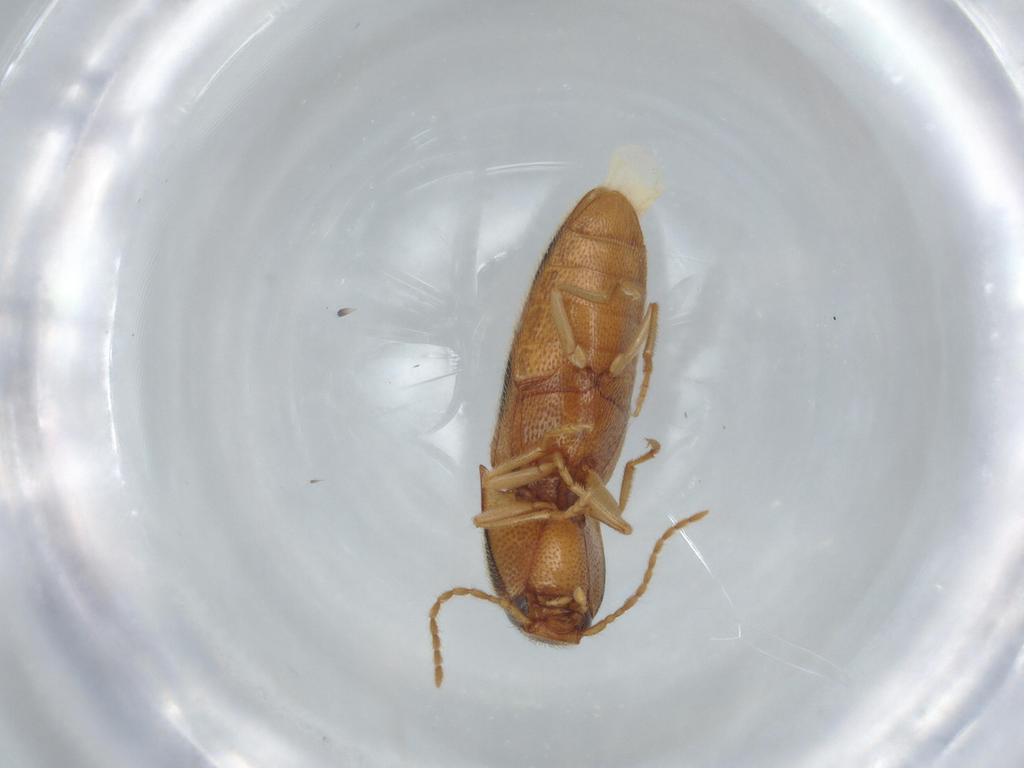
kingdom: Animalia
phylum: Arthropoda
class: Insecta
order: Coleoptera
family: Elateridae
